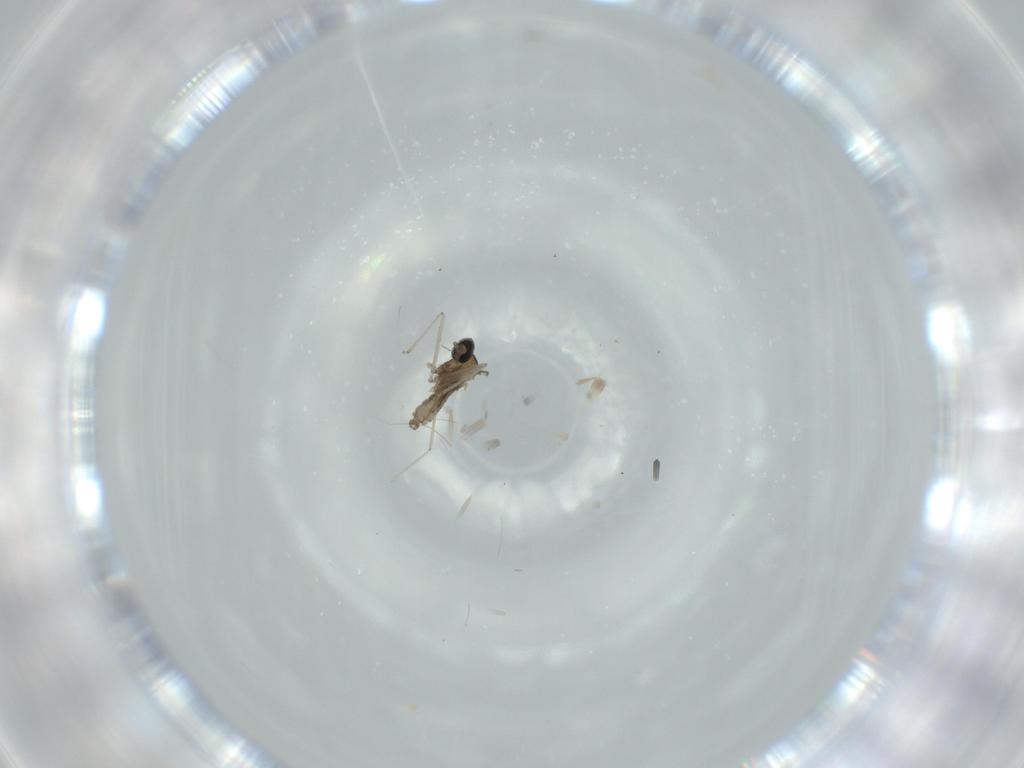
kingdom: Animalia
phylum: Arthropoda
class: Insecta
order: Diptera
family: Cecidomyiidae
